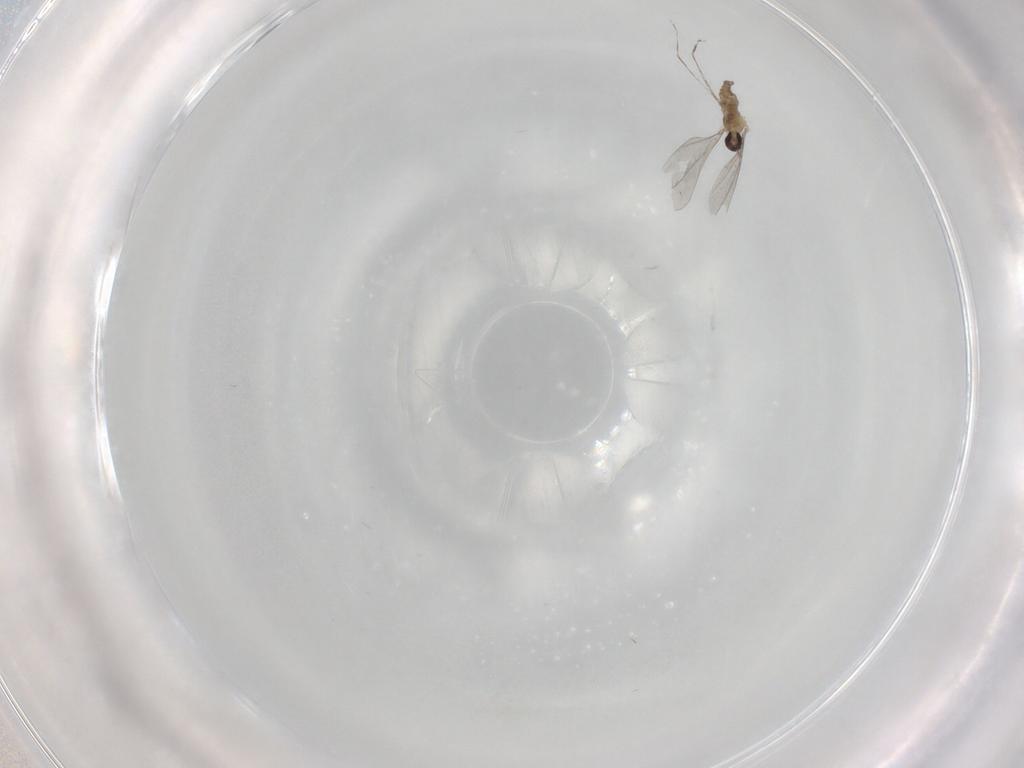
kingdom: Animalia
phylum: Arthropoda
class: Insecta
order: Diptera
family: Cecidomyiidae
